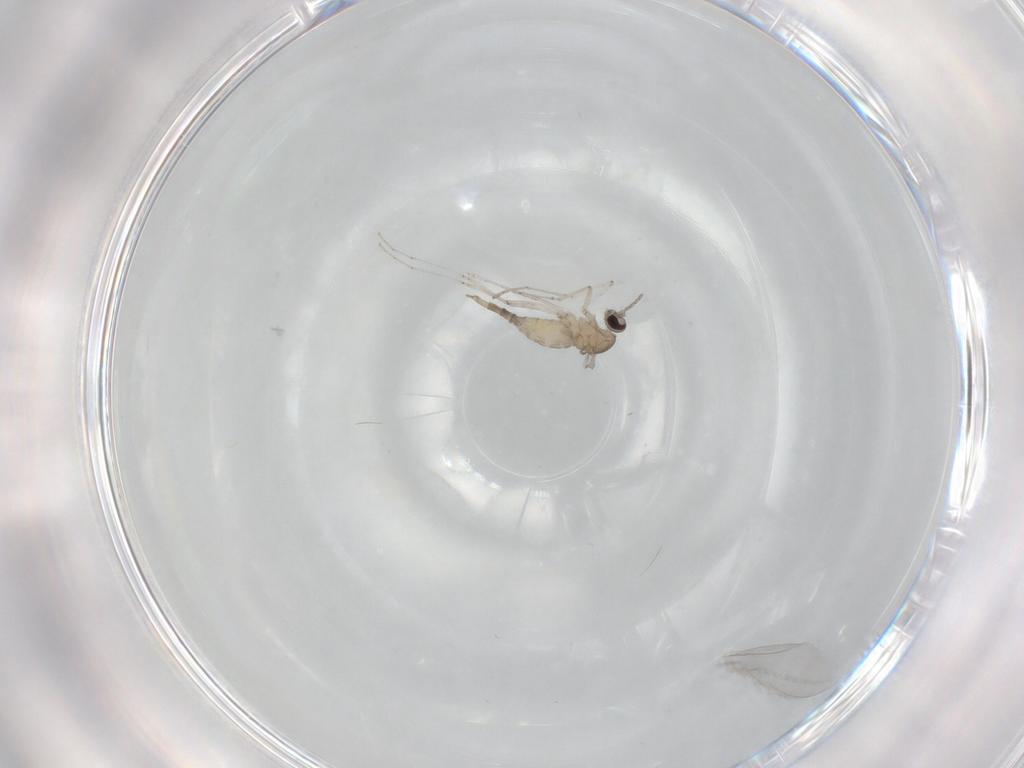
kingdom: Animalia
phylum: Arthropoda
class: Insecta
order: Diptera
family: Cecidomyiidae
